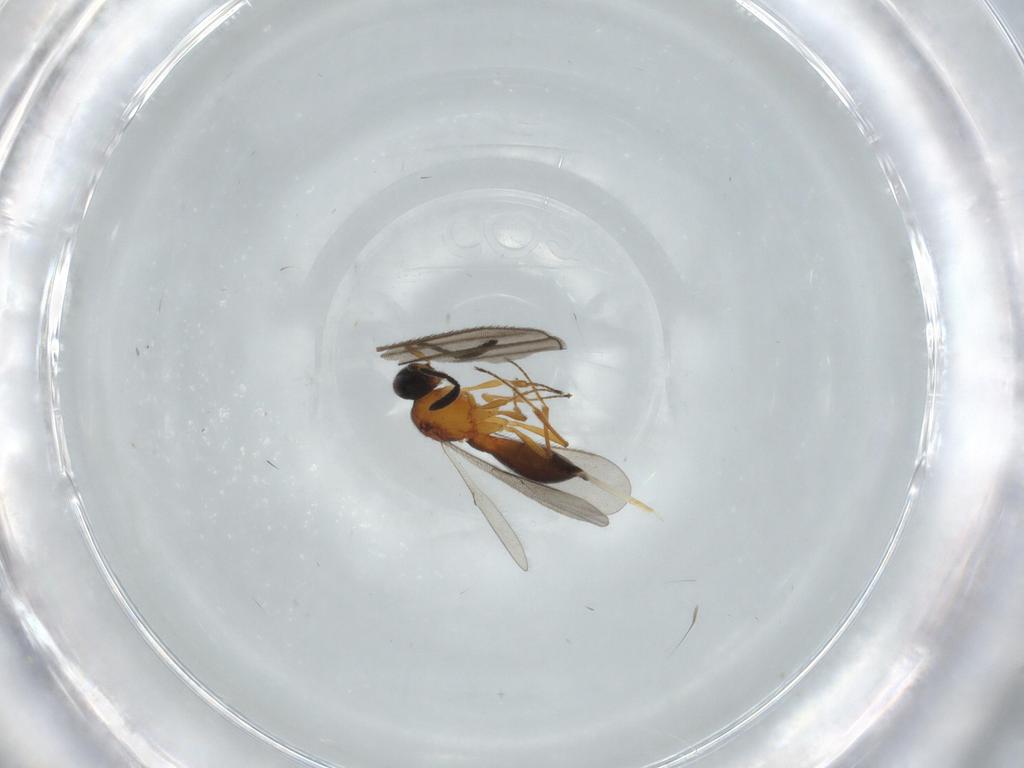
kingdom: Animalia
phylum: Arthropoda
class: Insecta
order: Hymenoptera
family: Scelionidae
